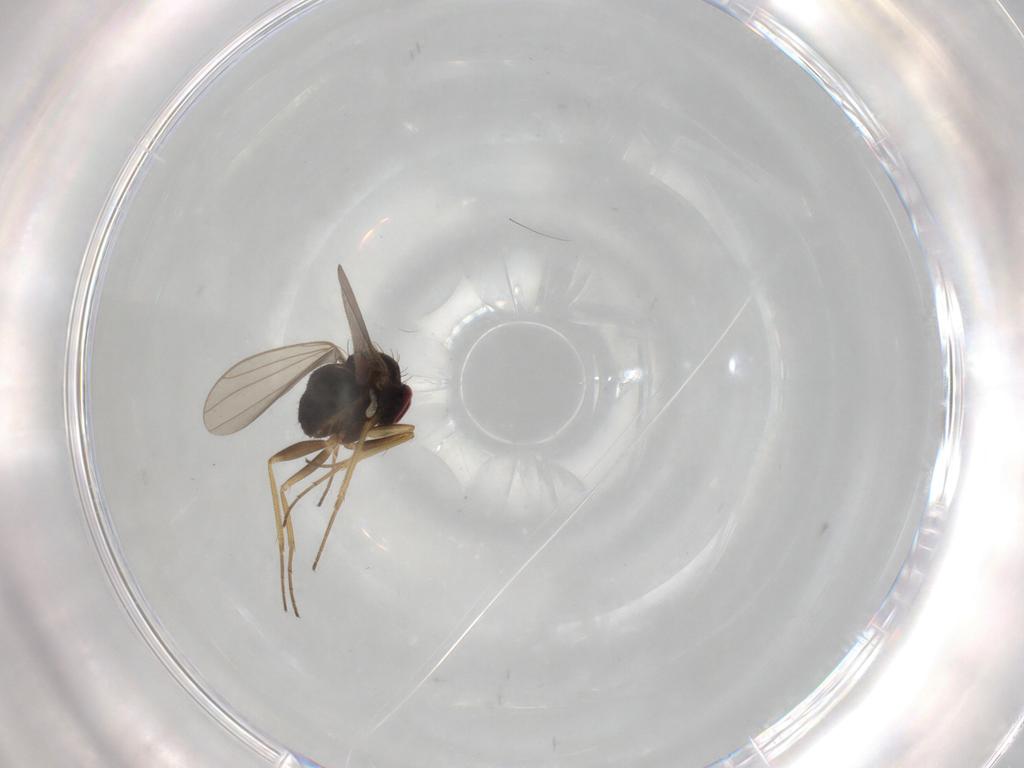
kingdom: Animalia
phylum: Arthropoda
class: Insecta
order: Diptera
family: Dolichopodidae
